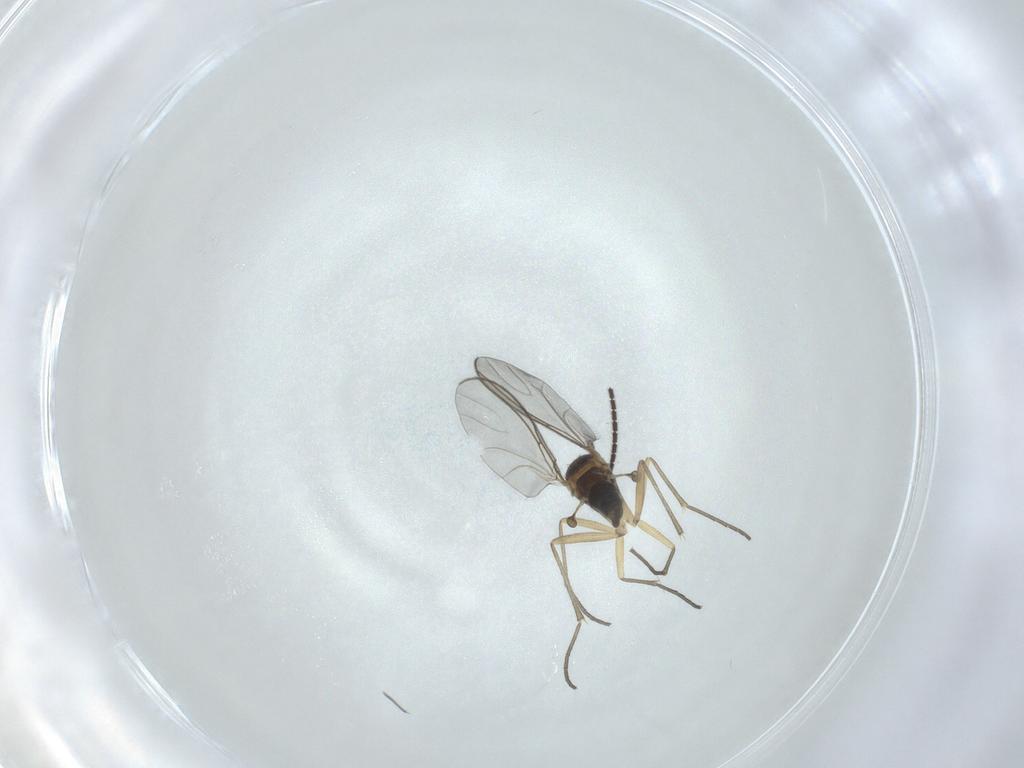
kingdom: Animalia
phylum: Arthropoda
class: Insecta
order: Diptera
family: Sciaridae
